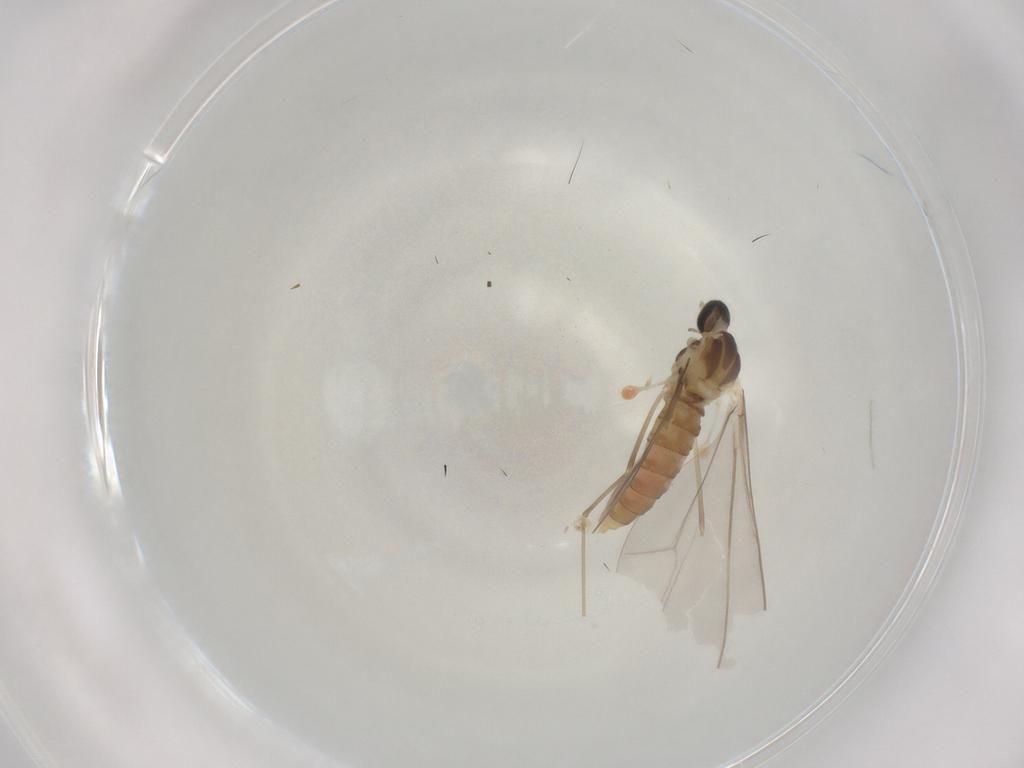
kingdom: Animalia
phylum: Arthropoda
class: Insecta
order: Diptera
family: Cecidomyiidae
